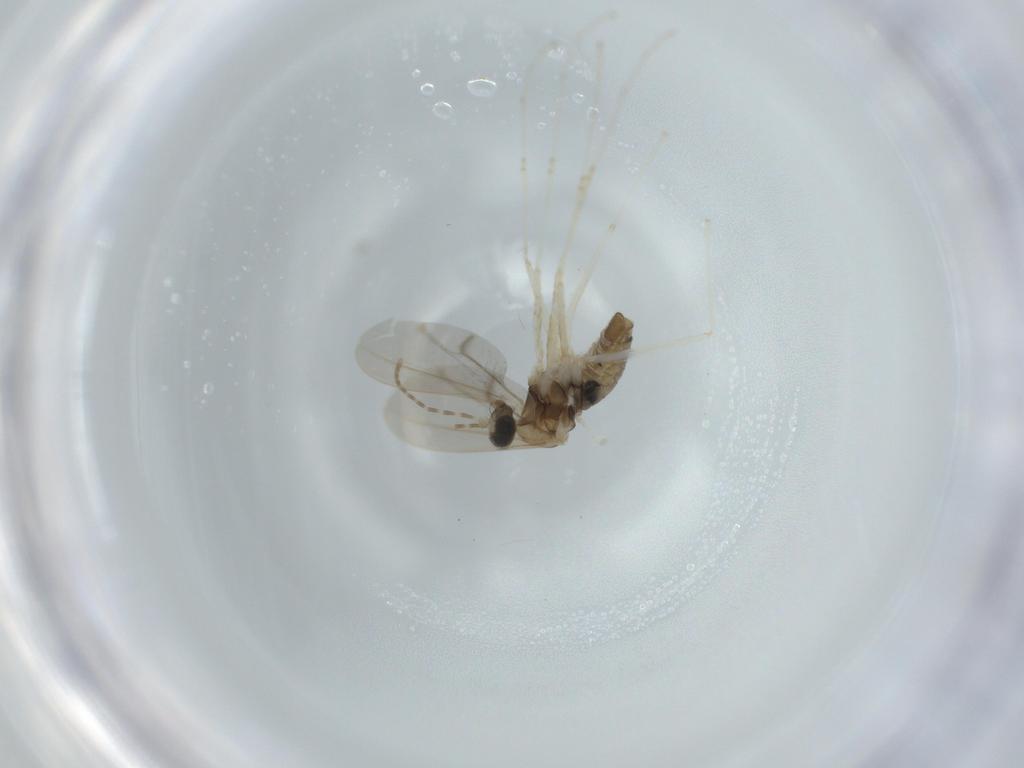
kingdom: Animalia
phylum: Arthropoda
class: Insecta
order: Diptera
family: Cecidomyiidae
